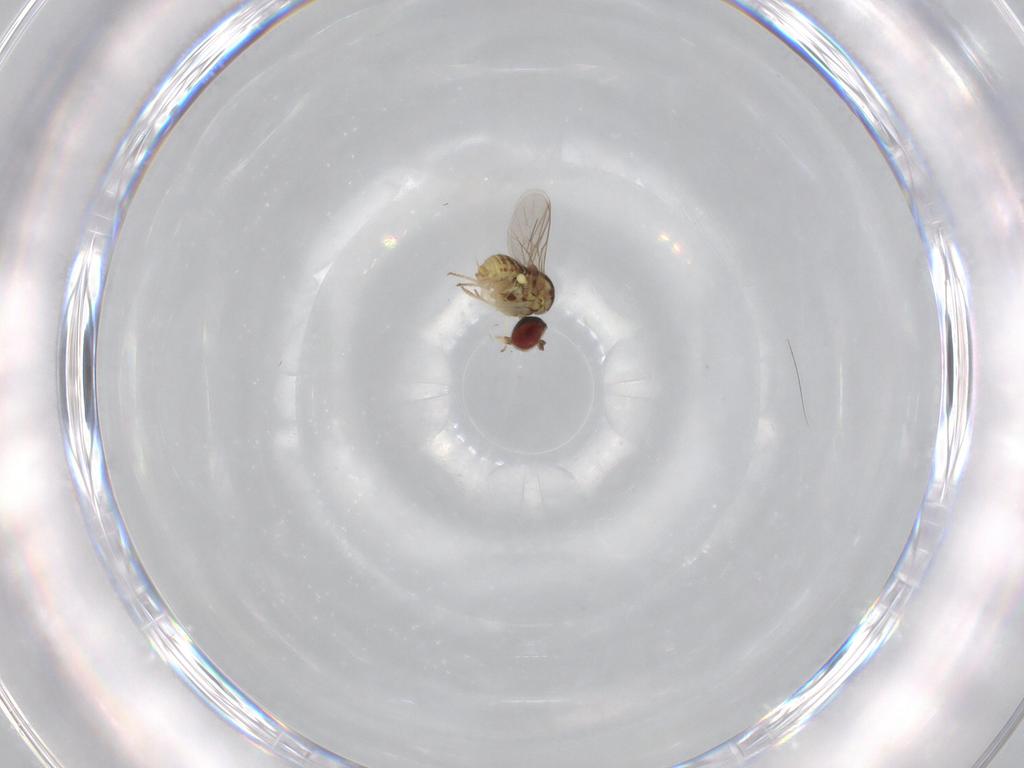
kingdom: Animalia
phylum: Arthropoda
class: Insecta
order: Diptera
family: Bombyliidae
